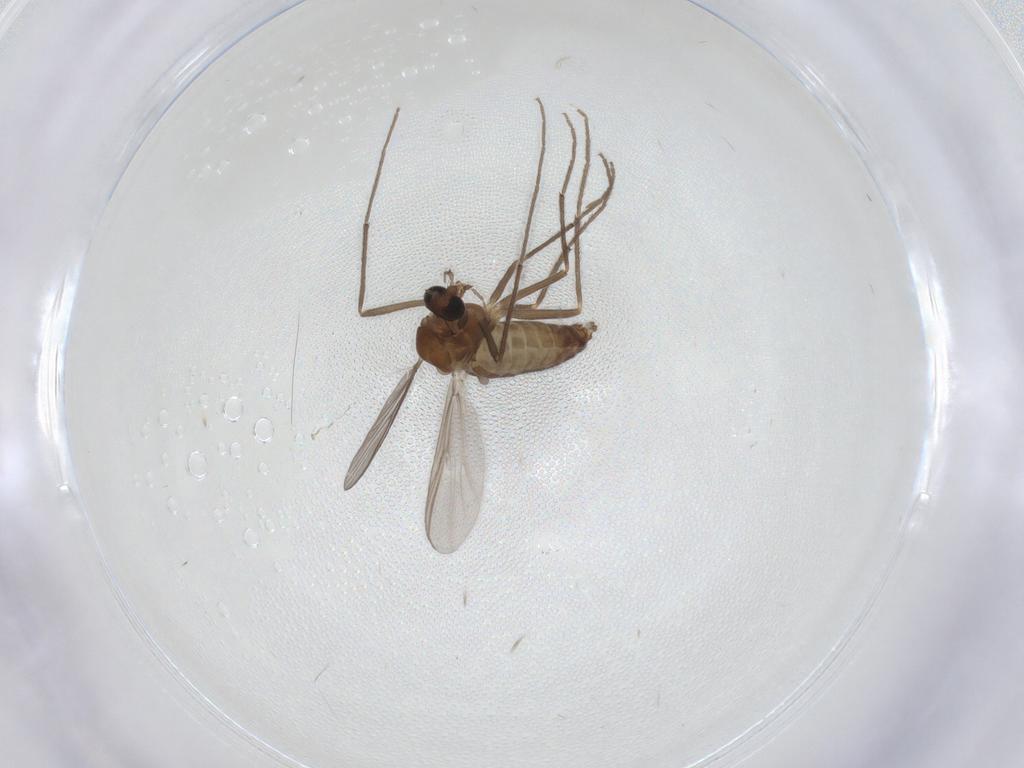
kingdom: Animalia
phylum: Arthropoda
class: Insecta
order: Diptera
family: Chironomidae
